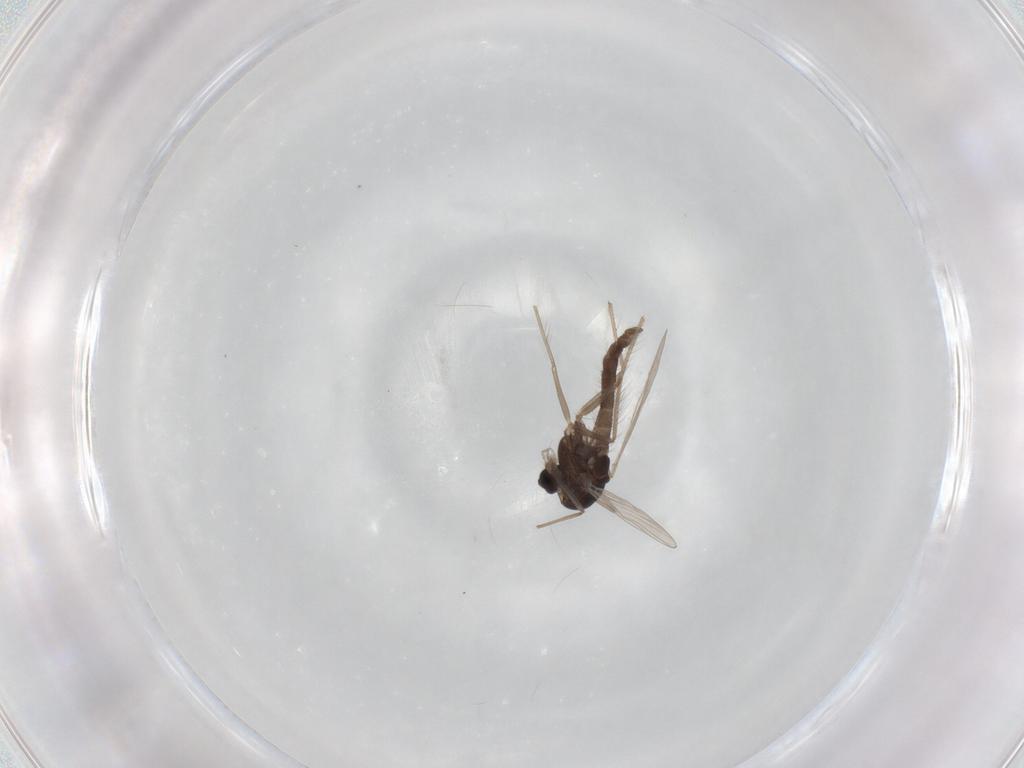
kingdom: Animalia
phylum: Arthropoda
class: Insecta
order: Diptera
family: Chironomidae
